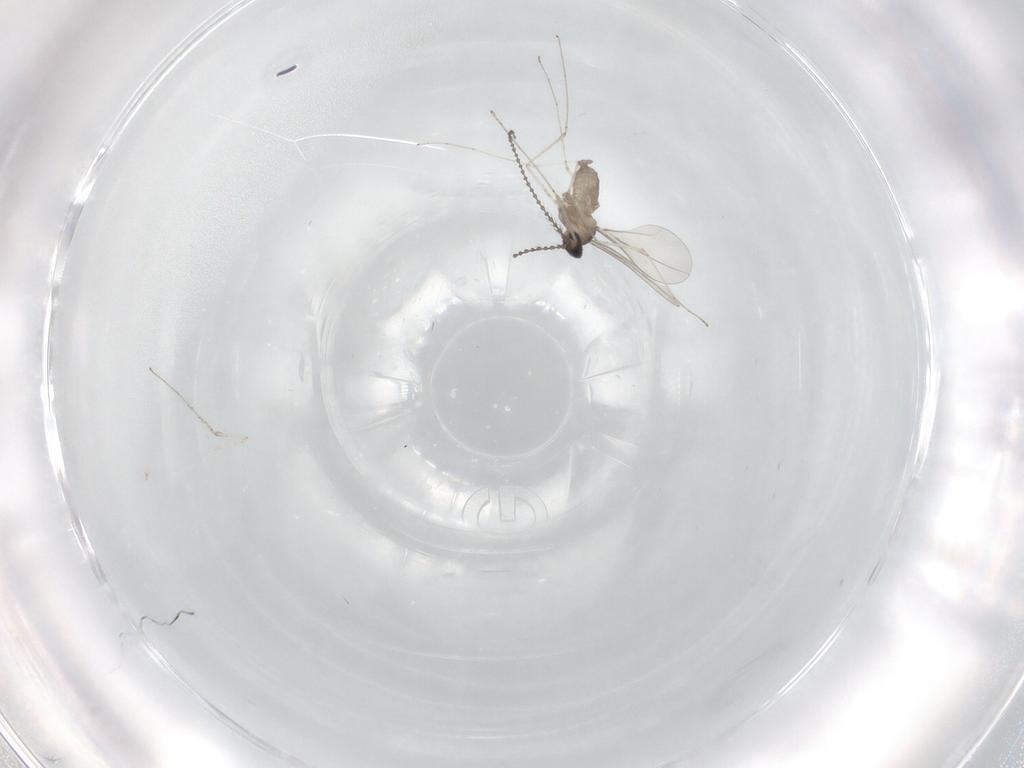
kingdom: Animalia
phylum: Arthropoda
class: Insecta
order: Diptera
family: Cecidomyiidae
